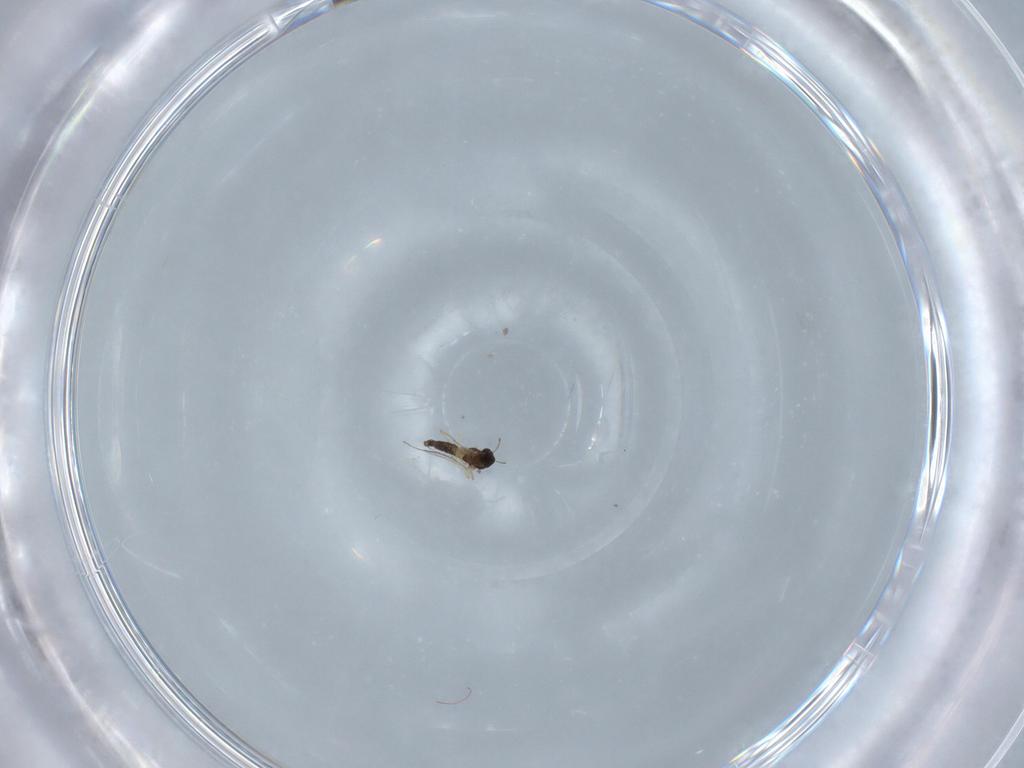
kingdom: Animalia
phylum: Arthropoda
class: Insecta
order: Diptera
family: Chironomidae
